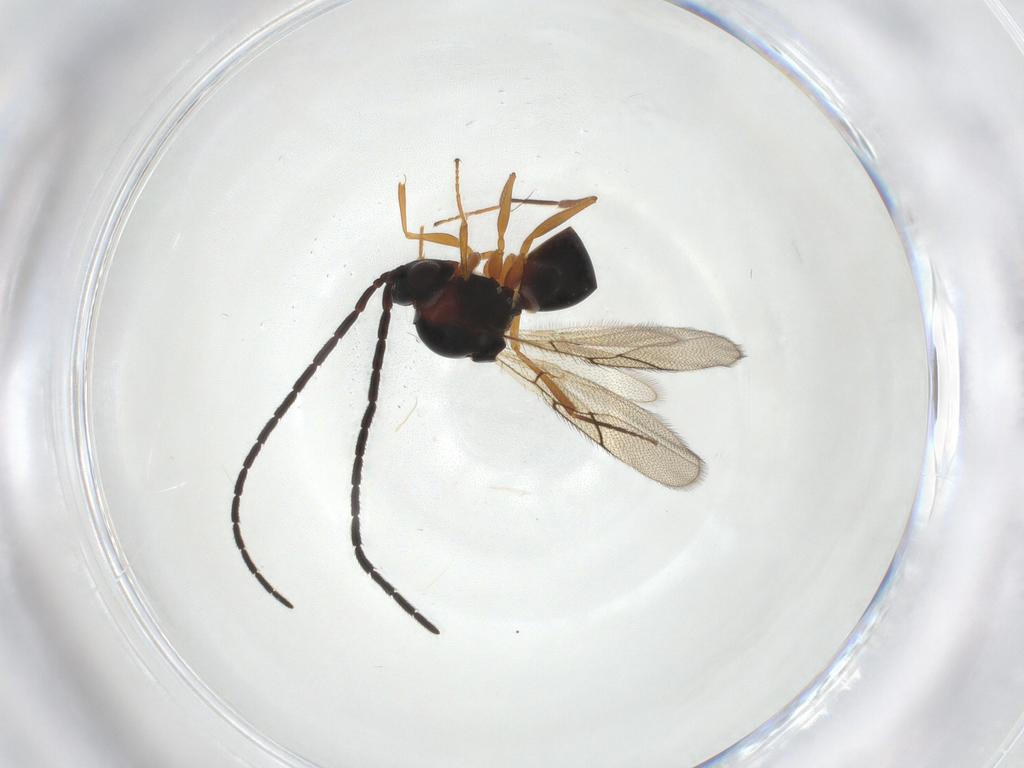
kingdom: Animalia
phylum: Arthropoda
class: Insecta
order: Hymenoptera
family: Figitidae
